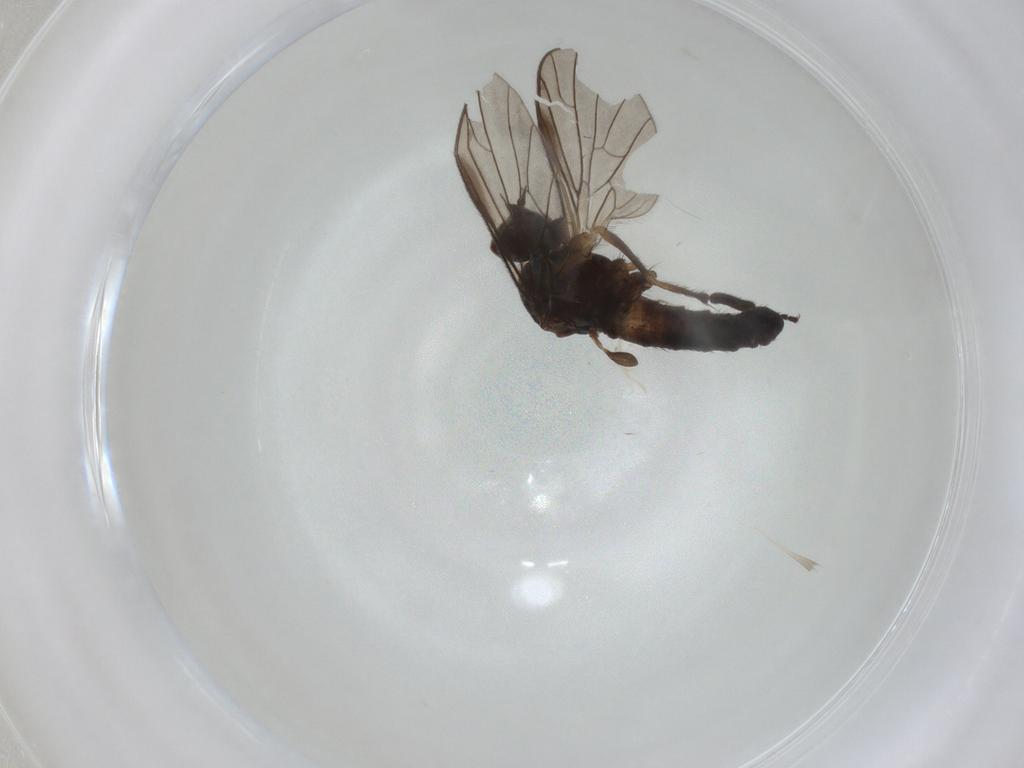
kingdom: Animalia
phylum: Arthropoda
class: Insecta
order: Diptera
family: Empididae
